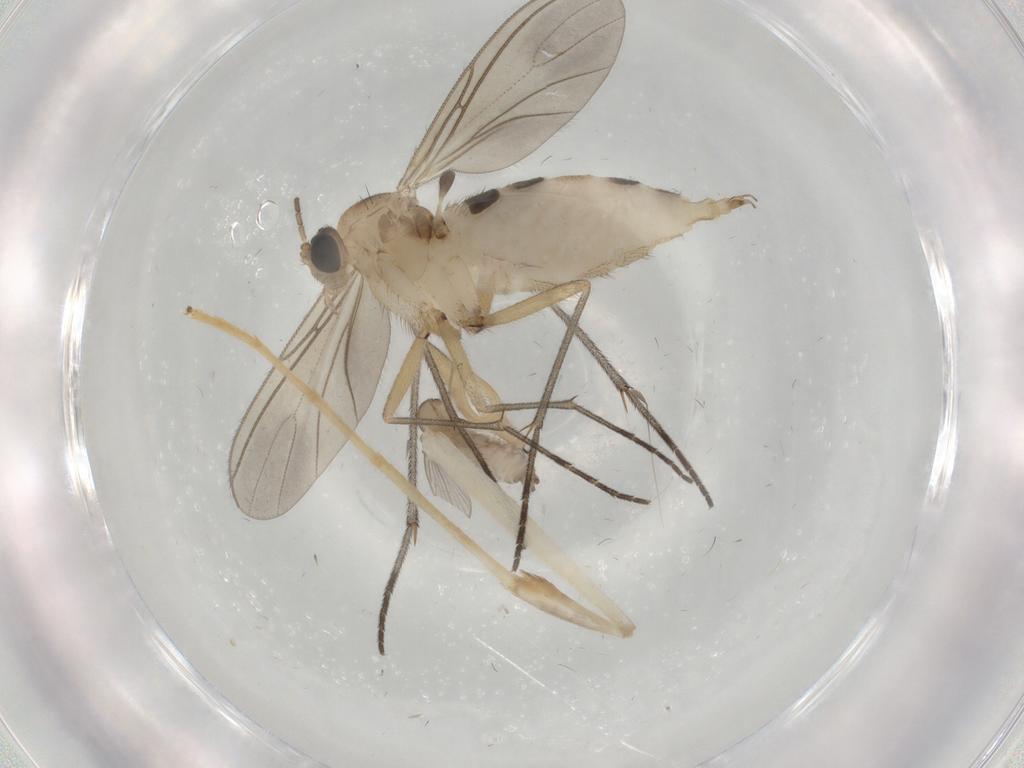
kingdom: Animalia
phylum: Arthropoda
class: Insecta
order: Diptera
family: Psychodidae
